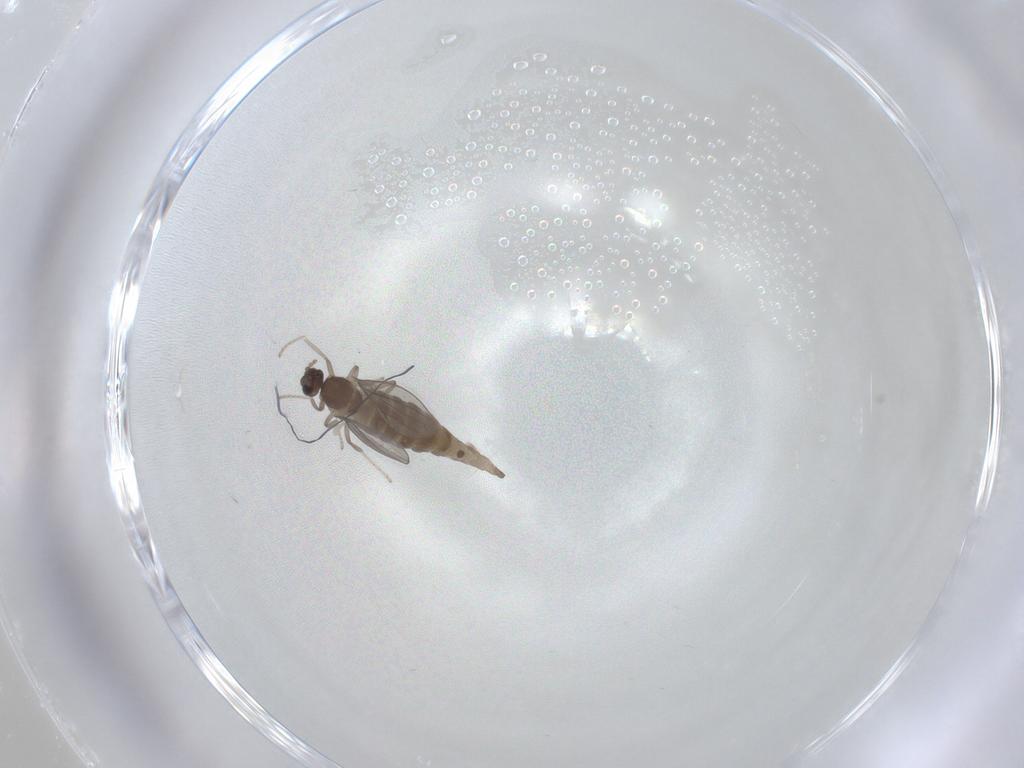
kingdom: Animalia
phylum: Arthropoda
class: Insecta
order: Diptera
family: Cecidomyiidae
